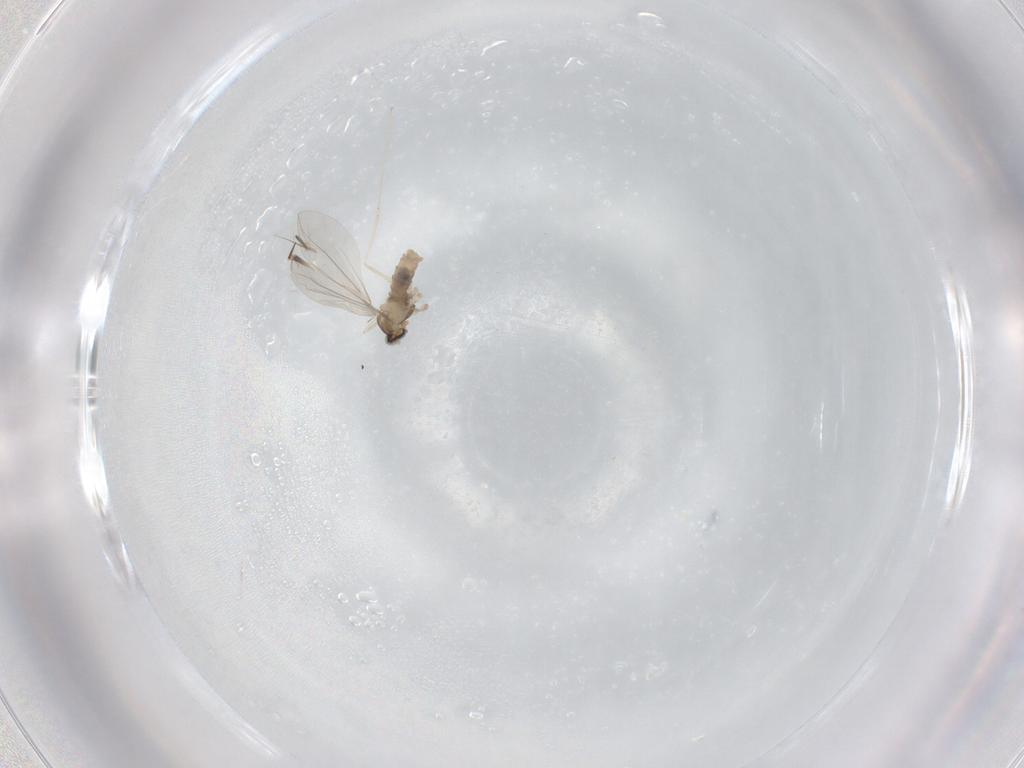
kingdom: Animalia
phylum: Arthropoda
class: Insecta
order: Diptera
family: Cecidomyiidae
